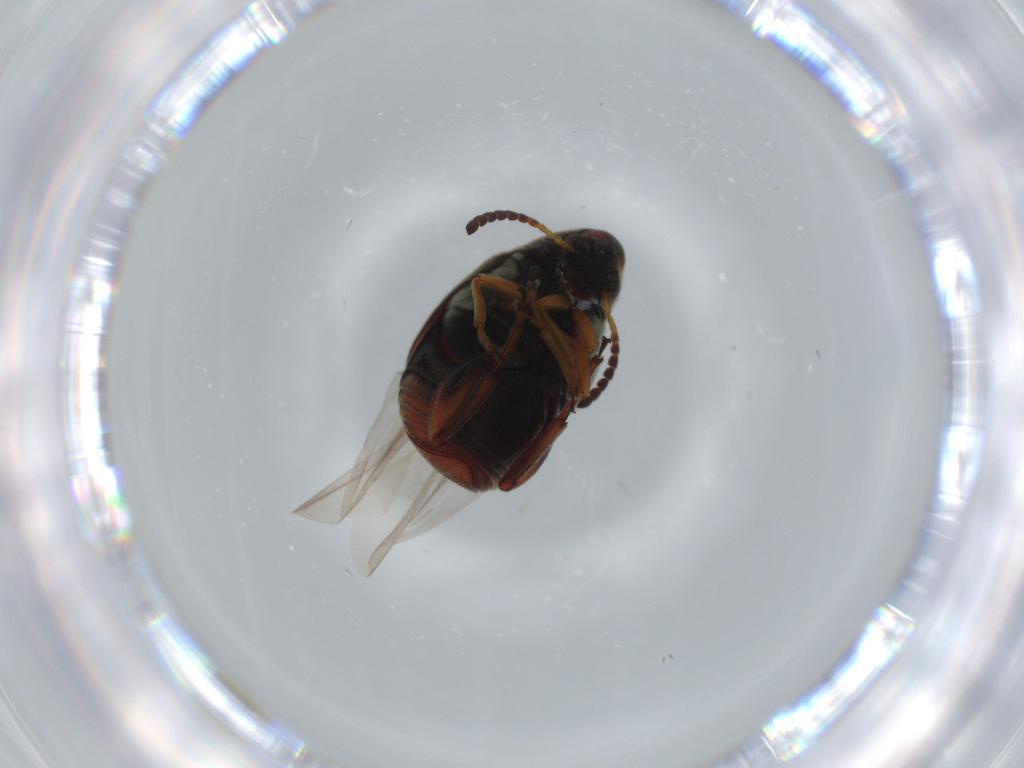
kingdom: Animalia
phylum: Arthropoda
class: Insecta
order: Coleoptera
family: Chrysomelidae
